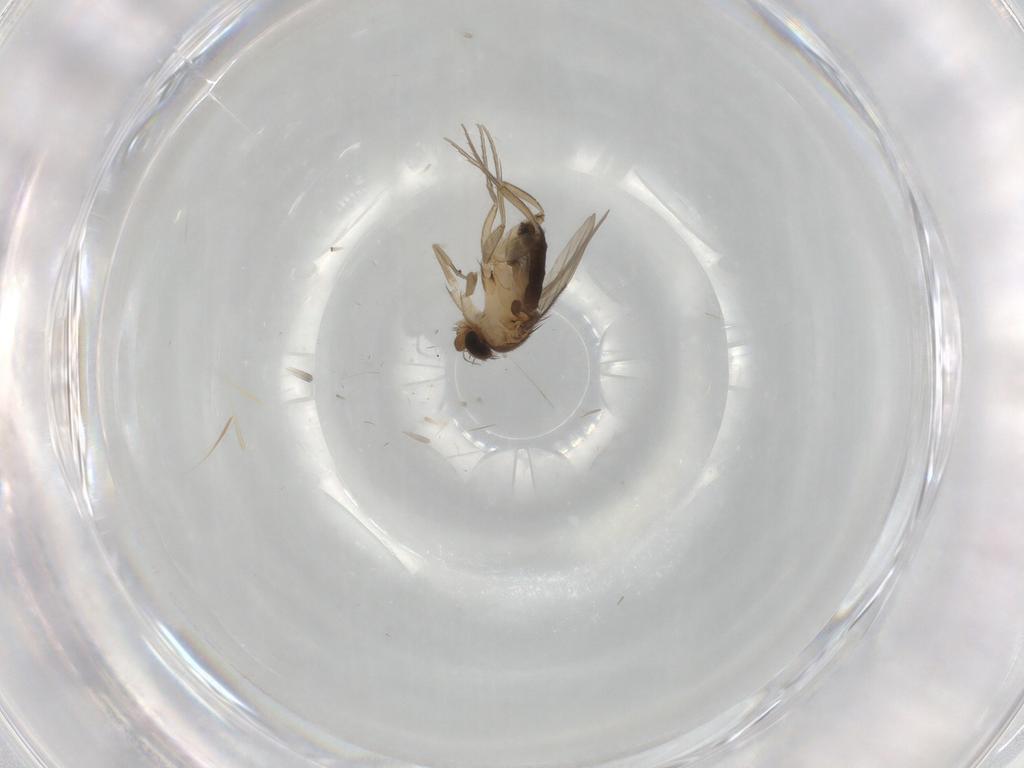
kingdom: Animalia
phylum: Arthropoda
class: Insecta
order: Diptera
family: Phoridae
